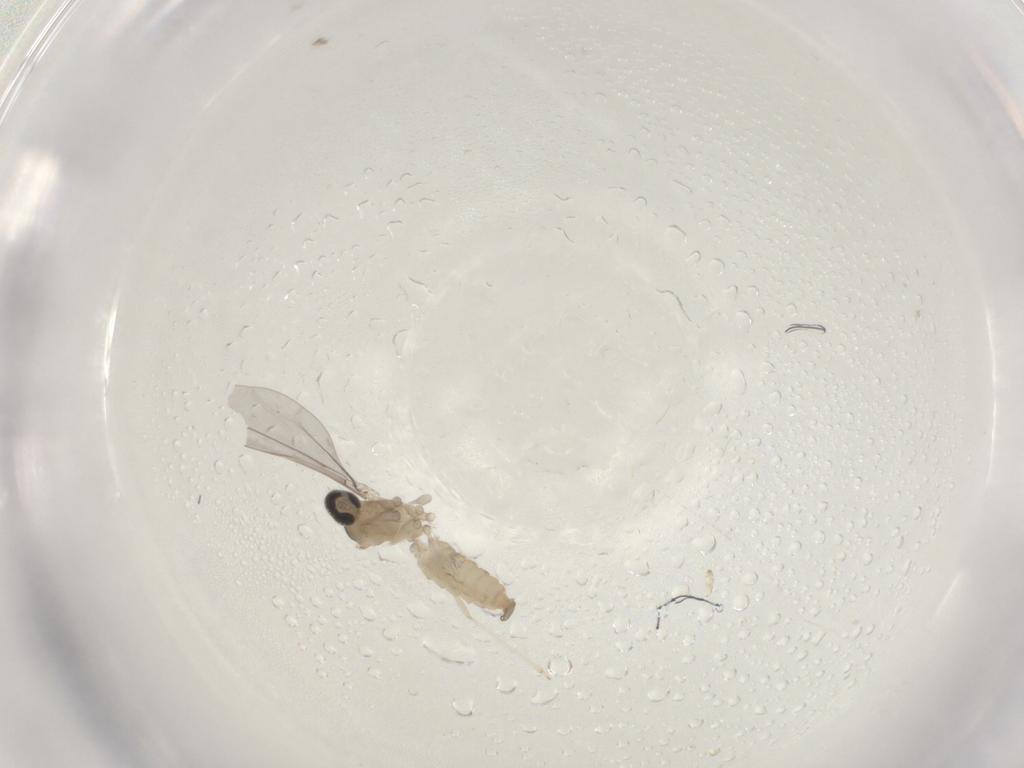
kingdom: Animalia
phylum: Arthropoda
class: Insecta
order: Diptera
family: Cecidomyiidae
